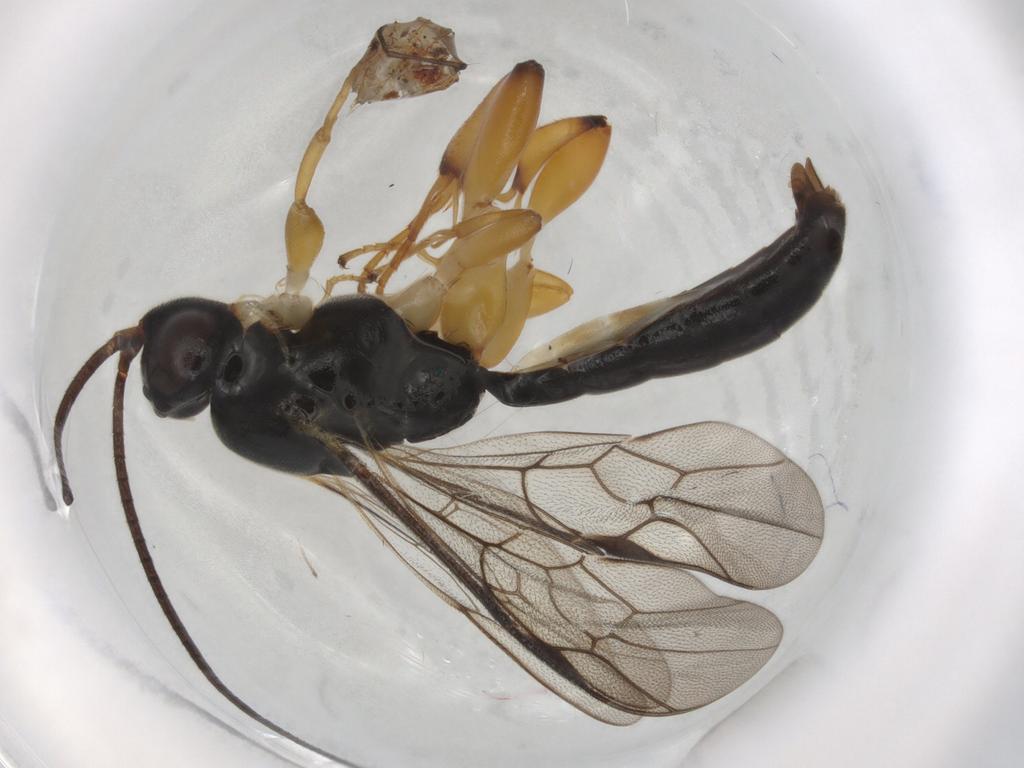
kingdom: Animalia
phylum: Arthropoda
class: Insecta
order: Hymenoptera
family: Ichneumonidae
